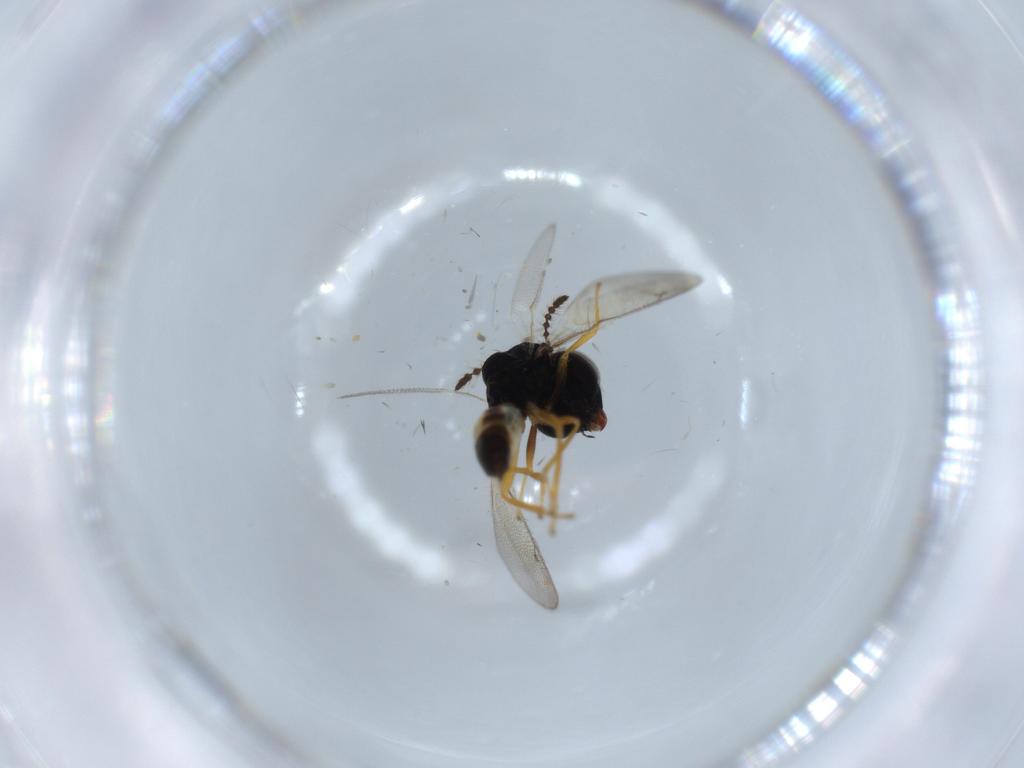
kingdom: Animalia
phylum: Arthropoda
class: Insecta
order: Hymenoptera
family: Pteromalidae
